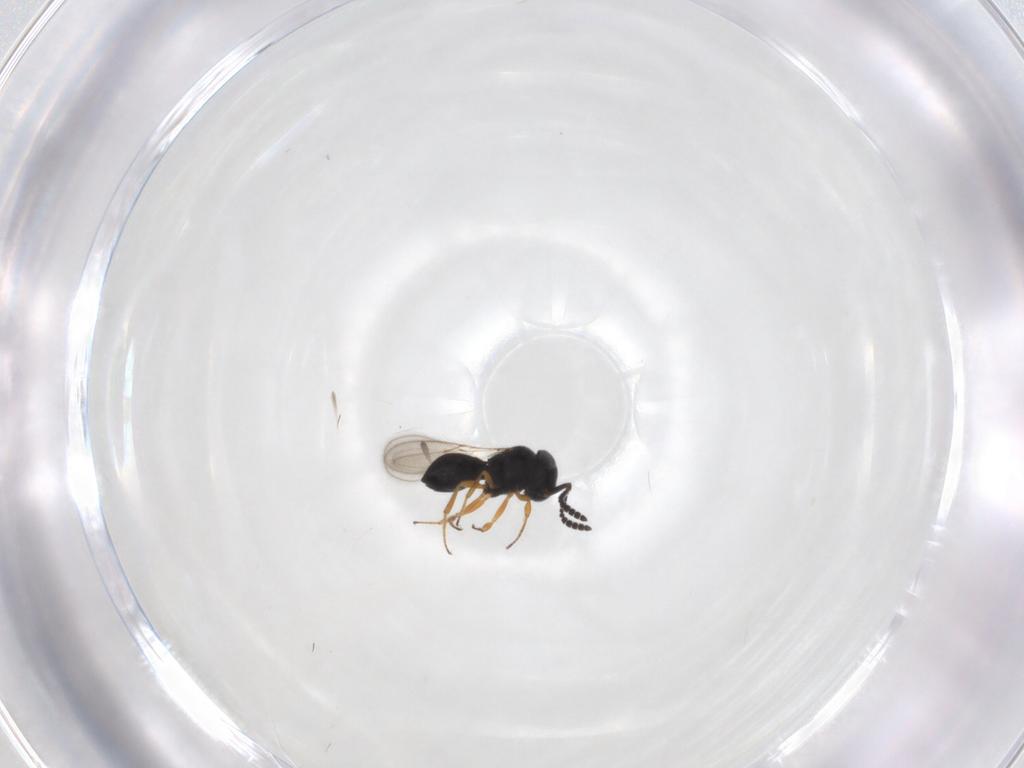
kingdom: Animalia
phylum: Arthropoda
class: Insecta
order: Hymenoptera
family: Scelionidae
